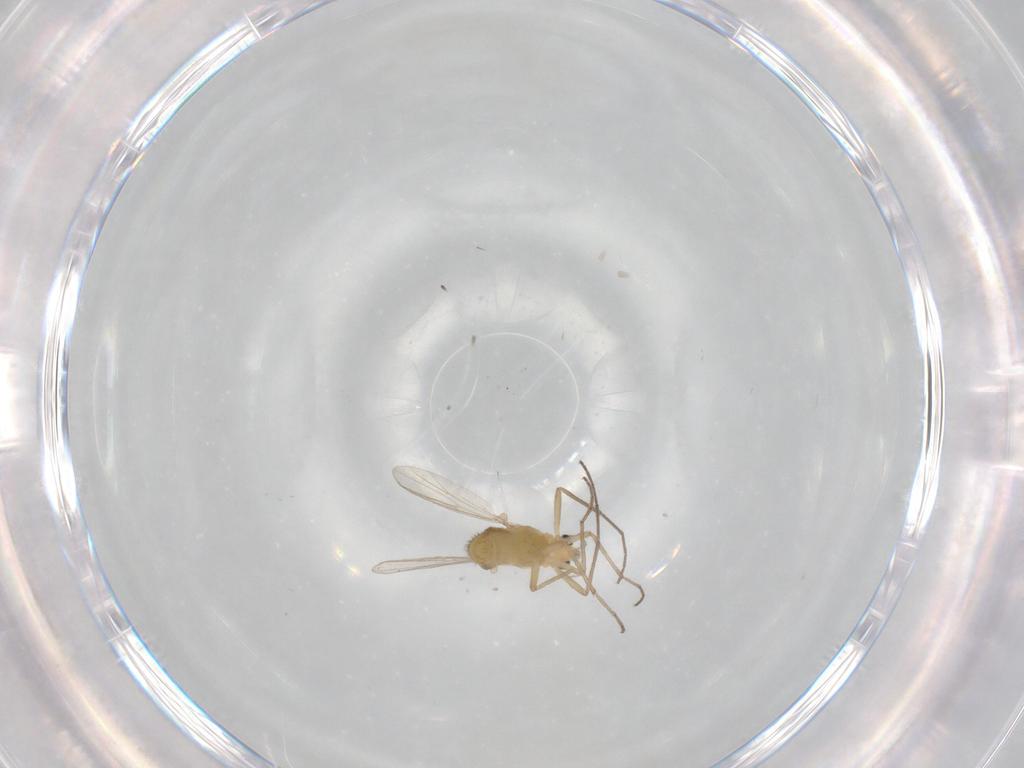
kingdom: Animalia
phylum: Arthropoda
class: Insecta
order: Diptera
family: Chironomidae
